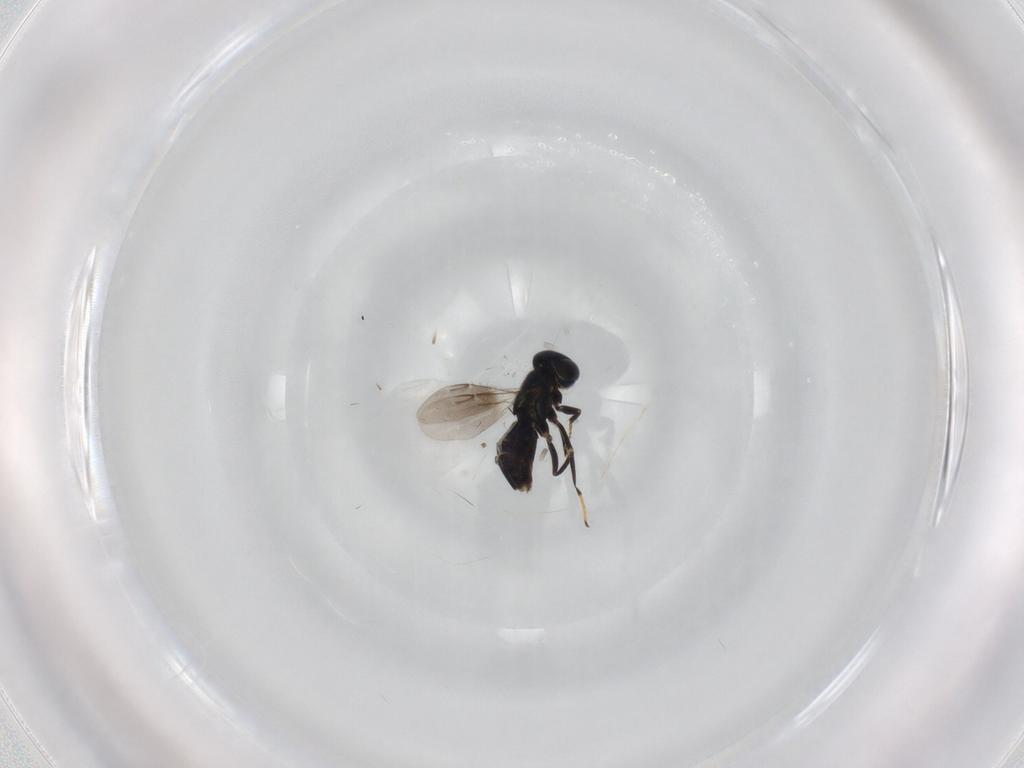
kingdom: Animalia
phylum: Arthropoda
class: Insecta
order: Hymenoptera
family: Encyrtidae
